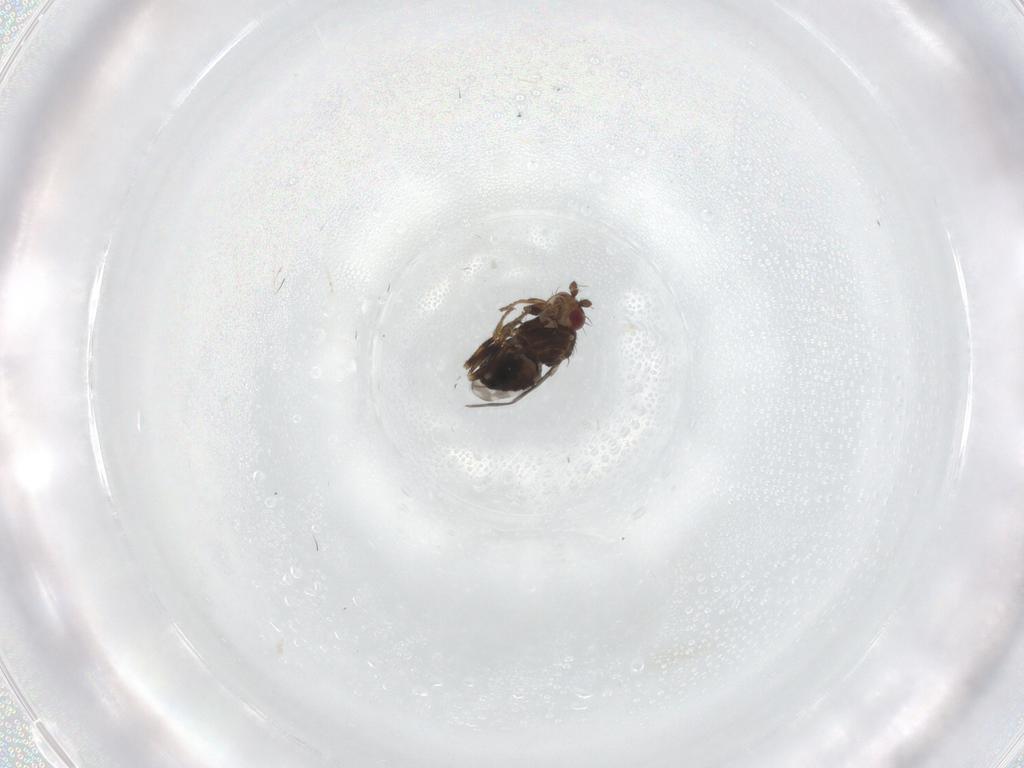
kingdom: Animalia
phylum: Arthropoda
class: Insecta
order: Diptera
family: Sphaeroceridae
